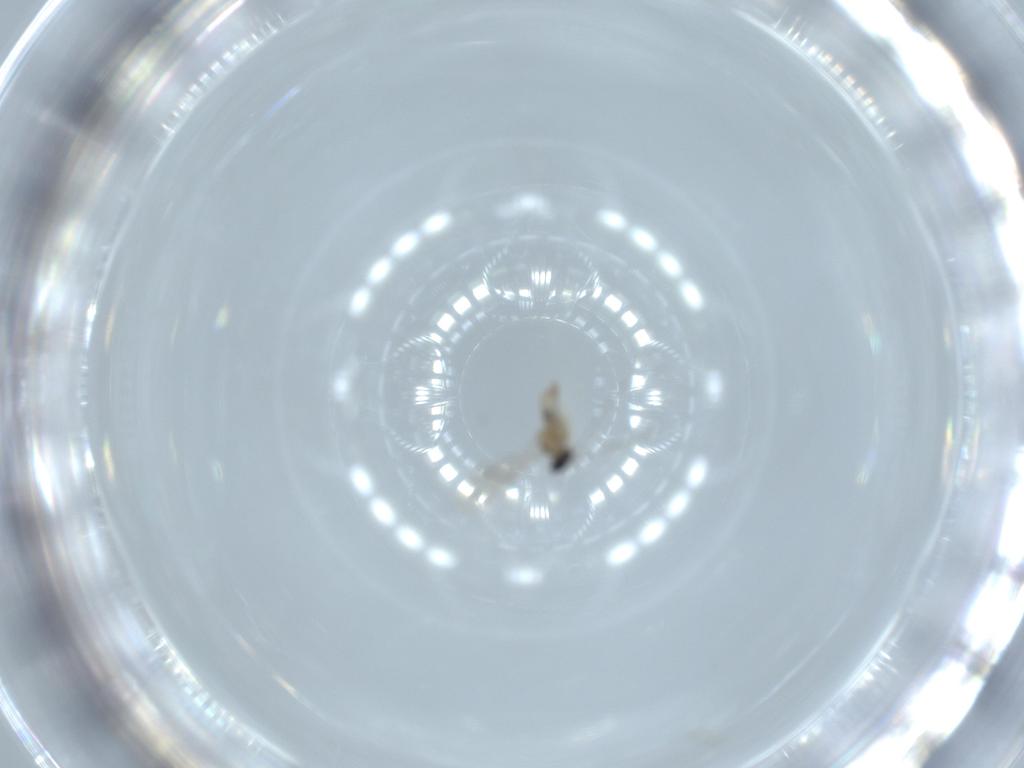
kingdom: Animalia
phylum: Arthropoda
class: Insecta
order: Diptera
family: Cecidomyiidae
